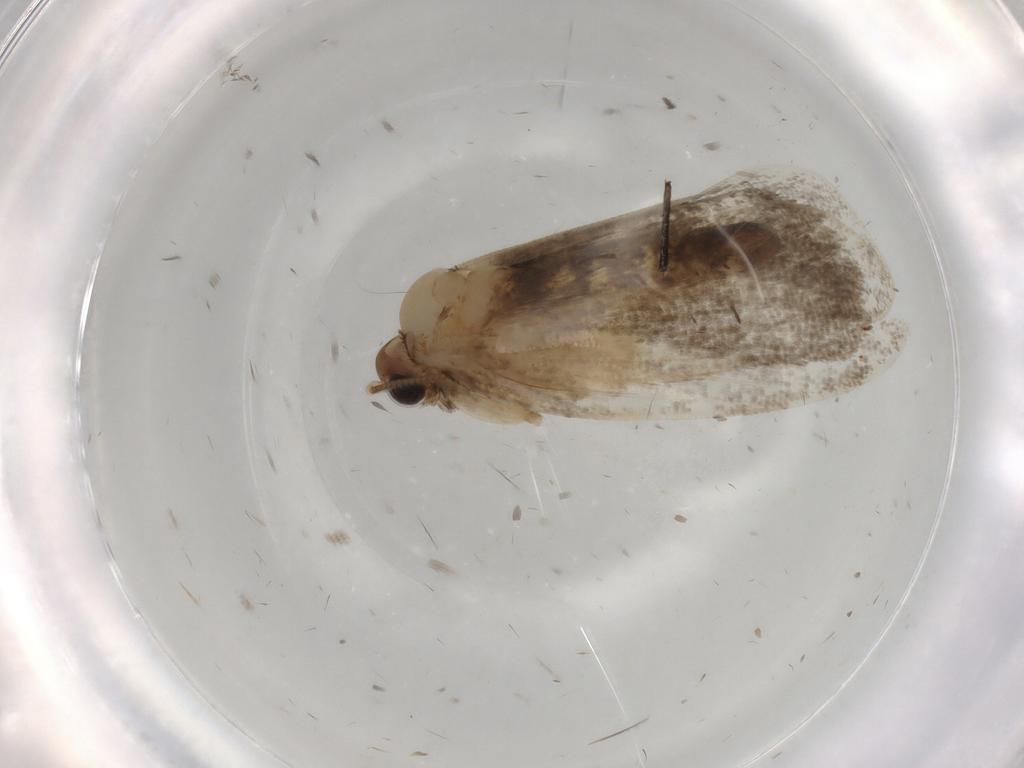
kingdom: Animalia
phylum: Arthropoda
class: Insecta
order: Lepidoptera
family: Psychidae
